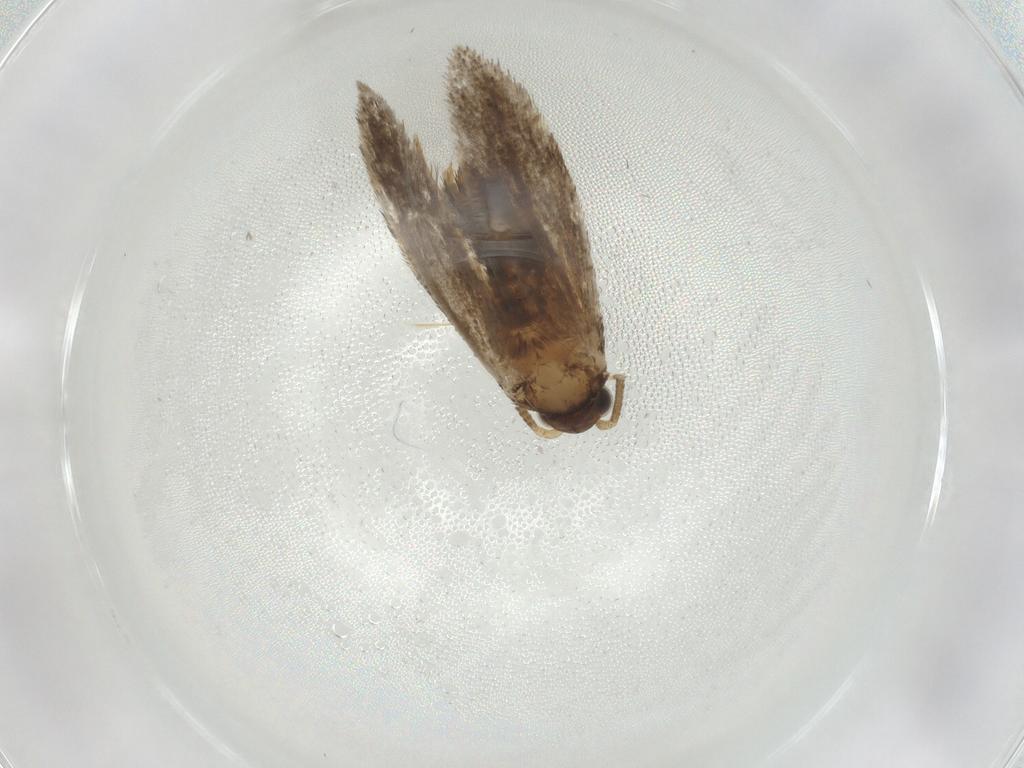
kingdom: Animalia
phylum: Arthropoda
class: Insecta
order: Lepidoptera
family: Tineidae
